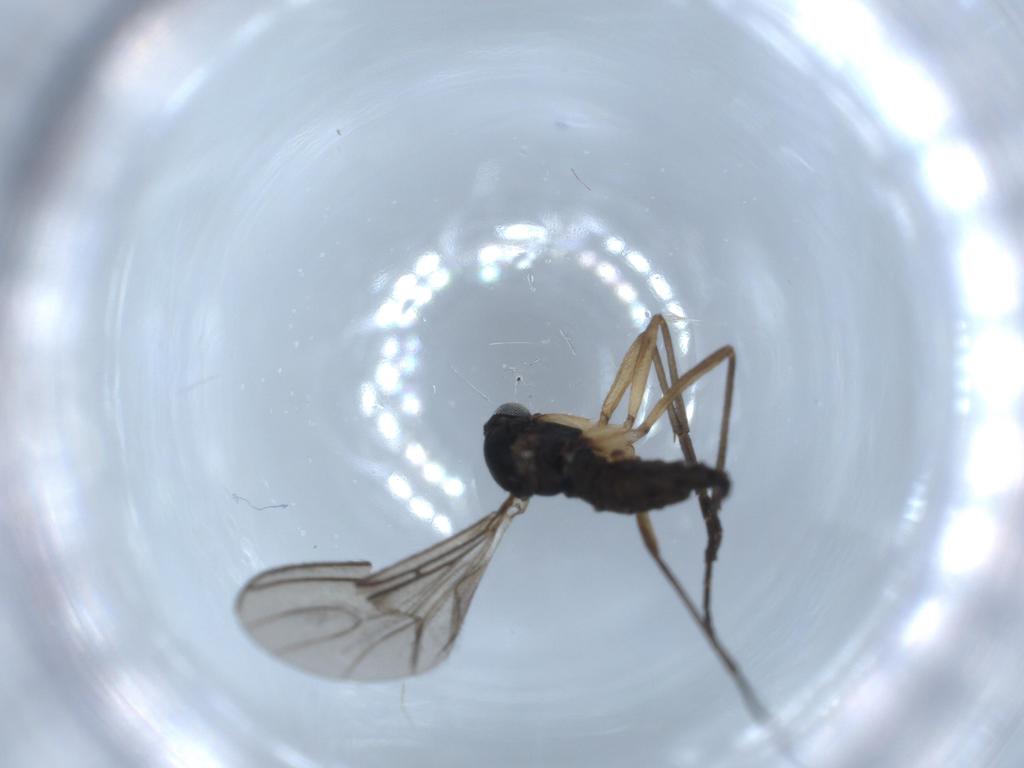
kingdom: Animalia
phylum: Arthropoda
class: Insecta
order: Diptera
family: Sciaridae
